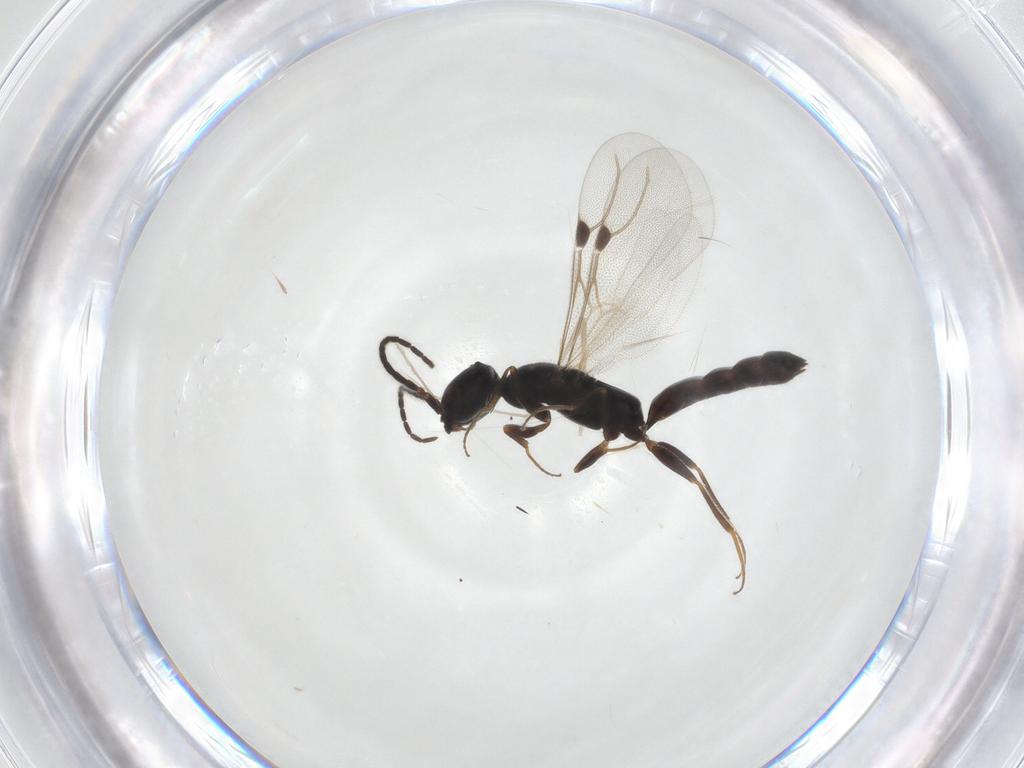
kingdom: Animalia
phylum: Arthropoda
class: Insecta
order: Hymenoptera
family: Bethylidae
